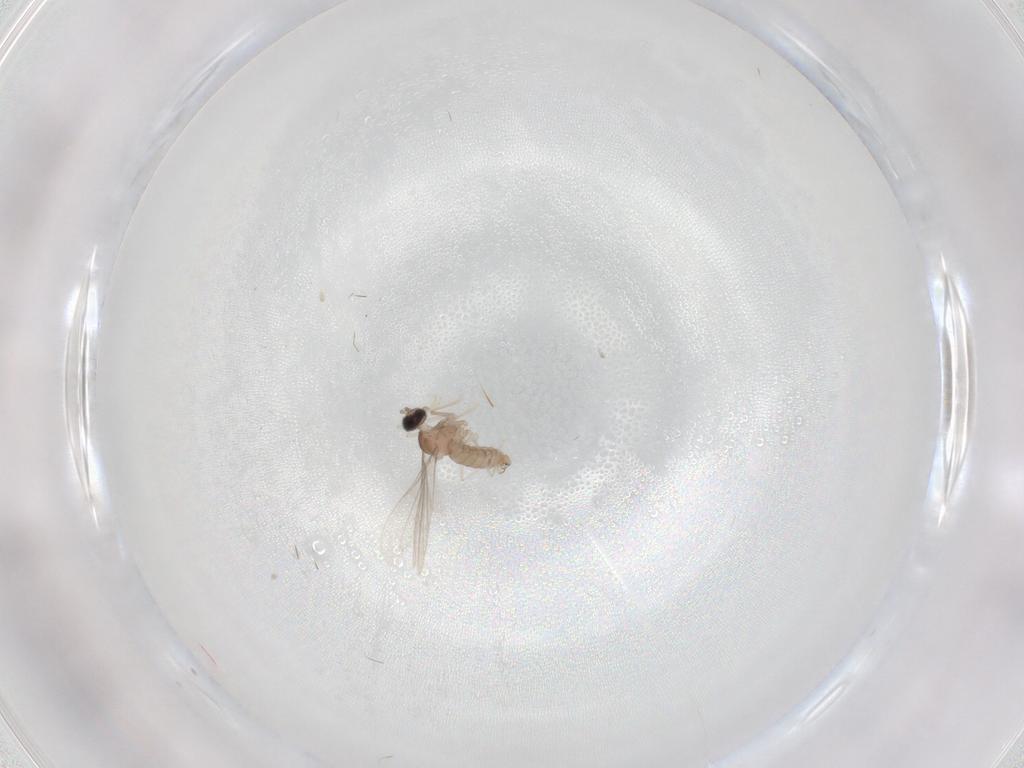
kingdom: Animalia
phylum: Arthropoda
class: Insecta
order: Diptera
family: Cecidomyiidae
